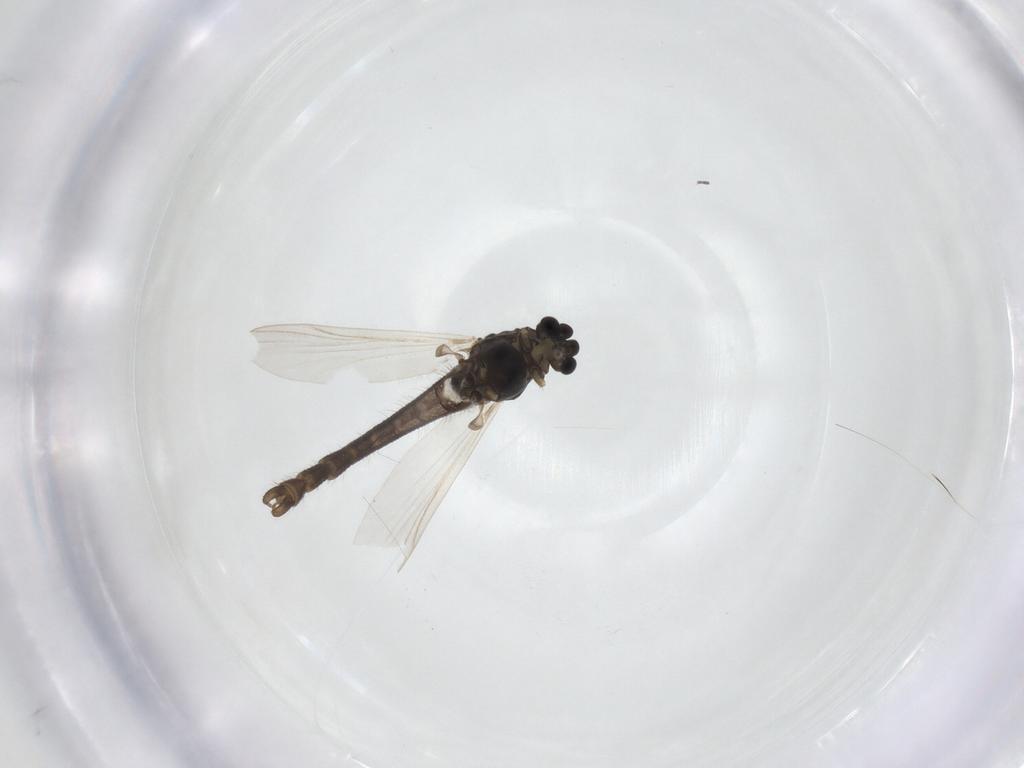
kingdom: Animalia
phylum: Arthropoda
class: Insecta
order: Diptera
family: Chironomidae
